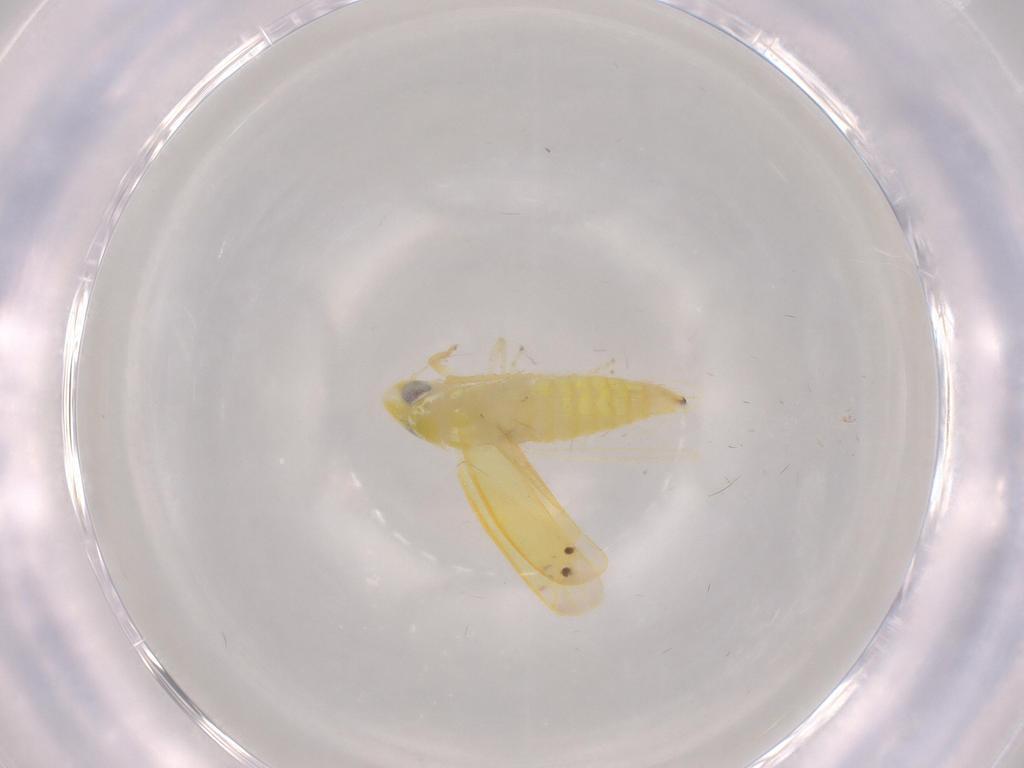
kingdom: Animalia
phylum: Arthropoda
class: Insecta
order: Hemiptera
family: Cicadellidae
